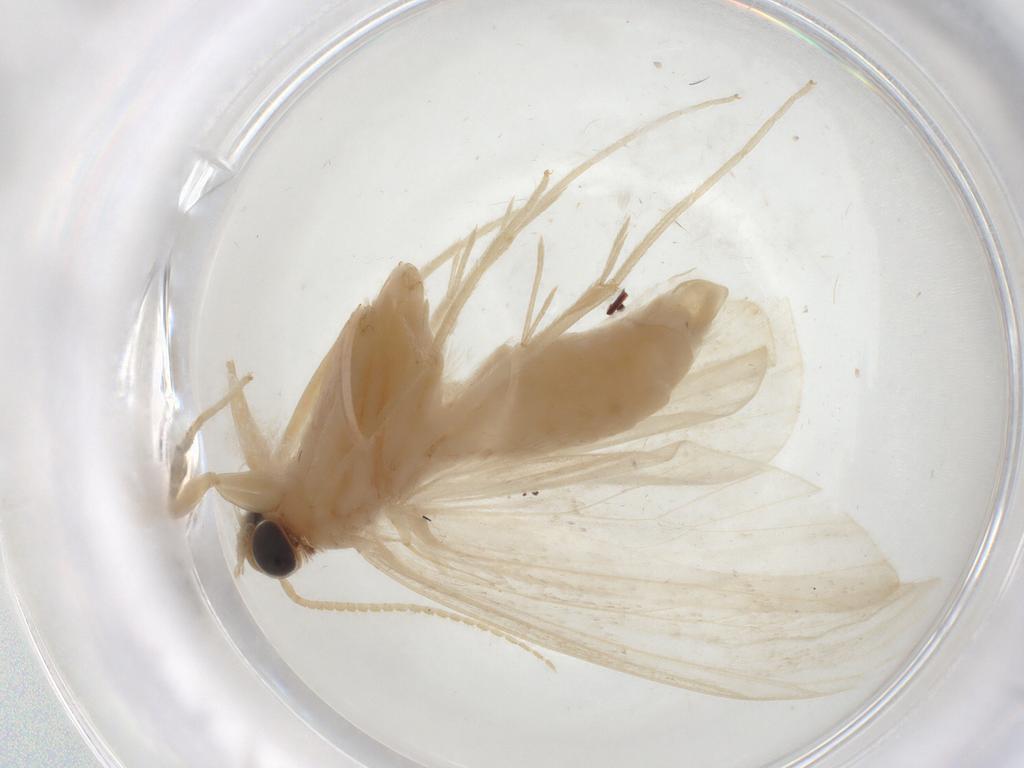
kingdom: Animalia
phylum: Arthropoda
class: Insecta
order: Lepidoptera
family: Crambidae
